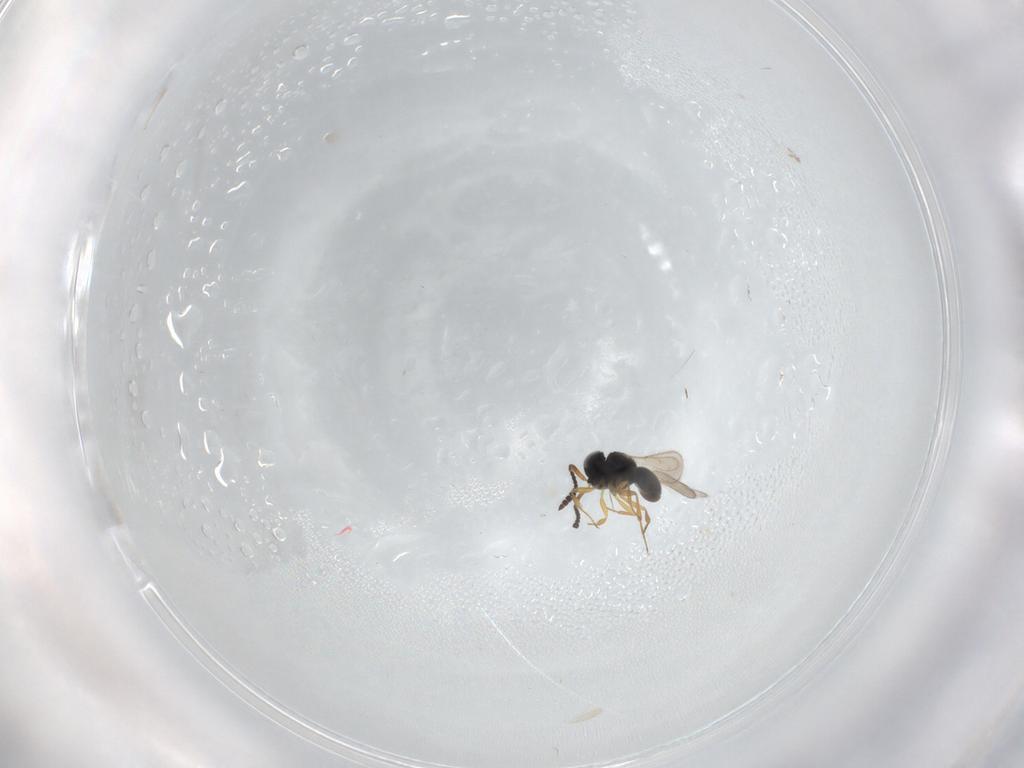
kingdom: Animalia
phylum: Arthropoda
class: Insecta
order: Hymenoptera
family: Scelionidae
